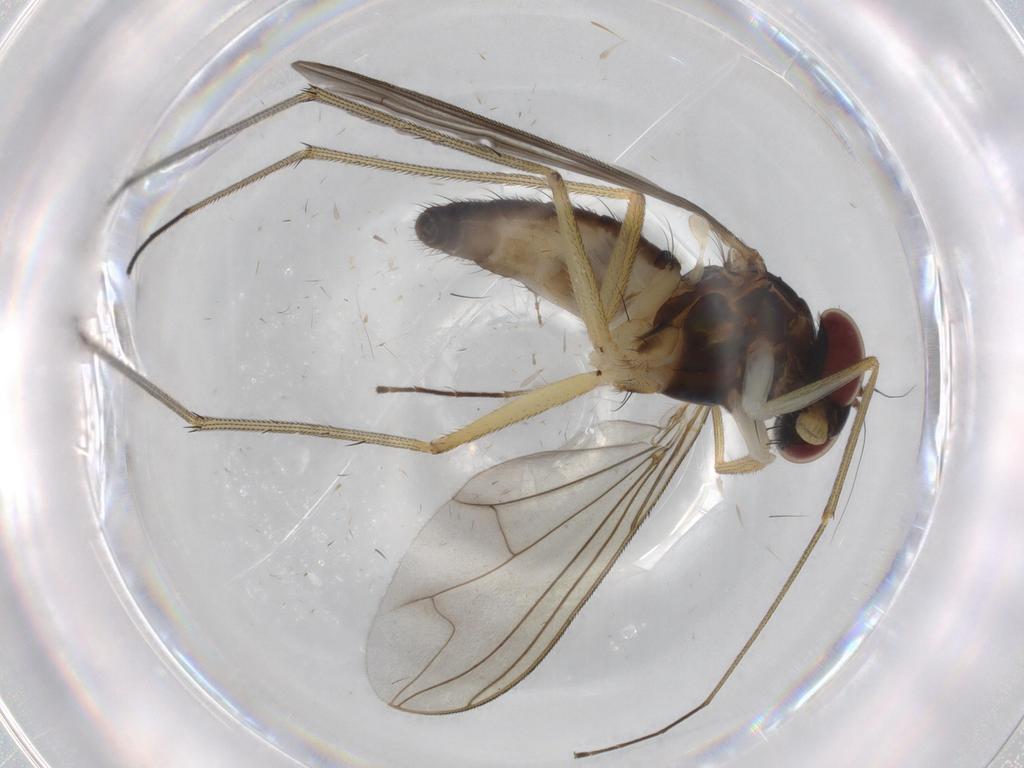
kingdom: Animalia
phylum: Arthropoda
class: Insecta
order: Diptera
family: Dolichopodidae
